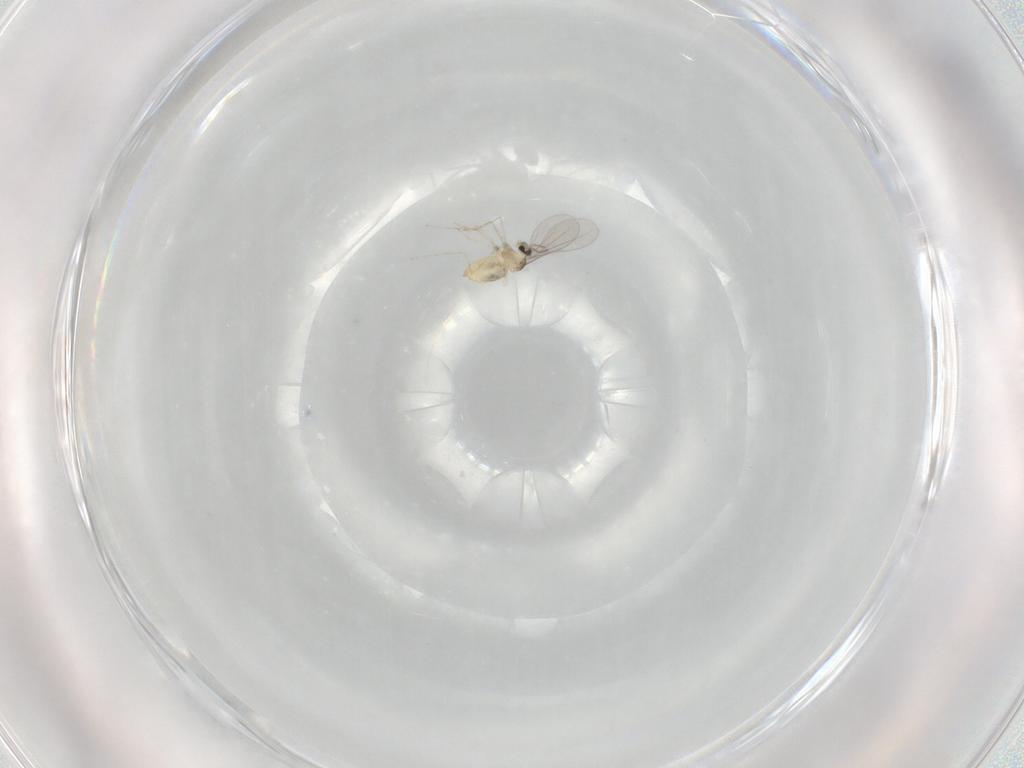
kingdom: Animalia
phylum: Arthropoda
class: Insecta
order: Diptera
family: Cecidomyiidae
